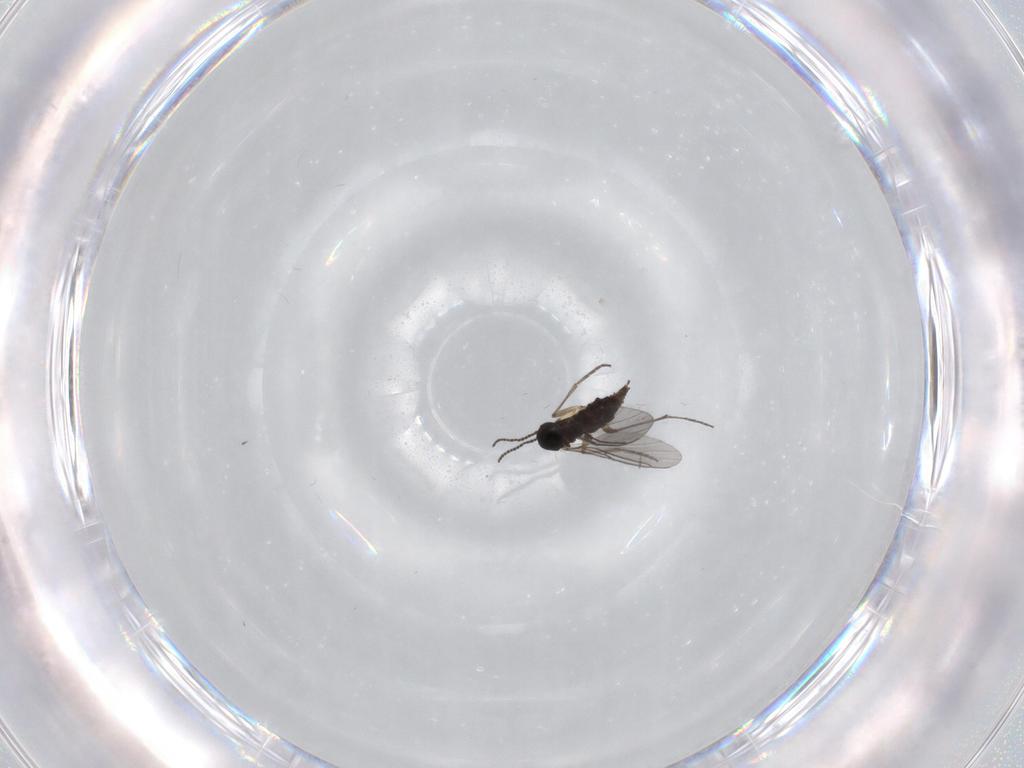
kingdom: Animalia
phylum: Arthropoda
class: Insecta
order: Diptera
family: Sciaridae
